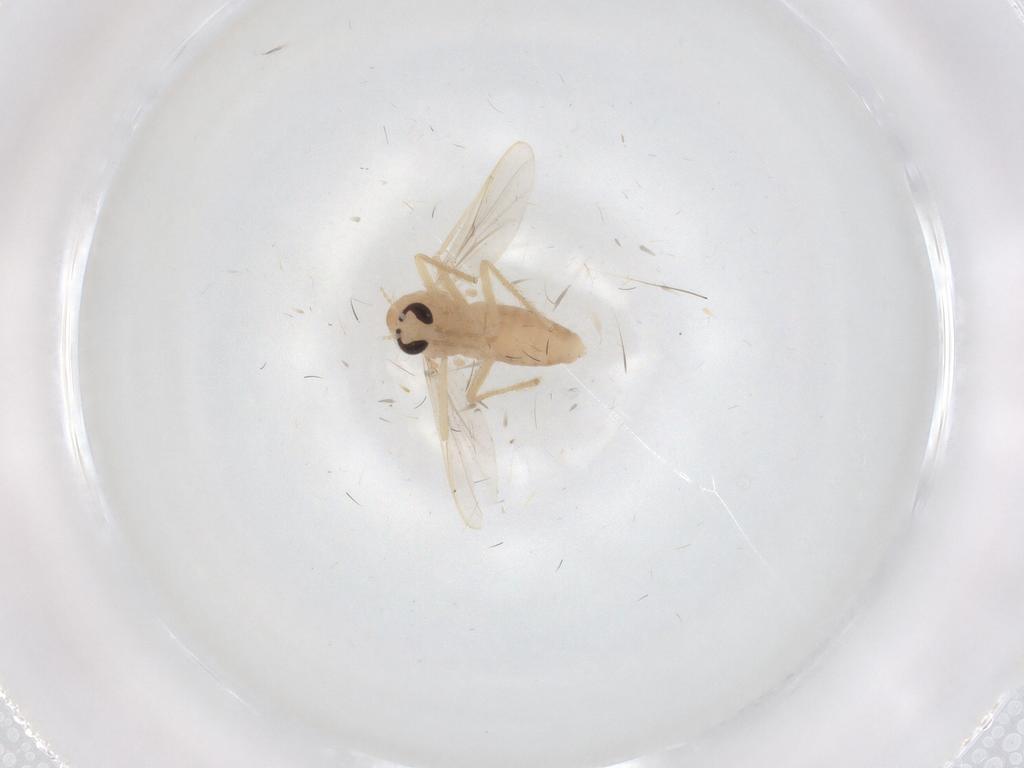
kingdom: Animalia
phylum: Arthropoda
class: Insecta
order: Diptera
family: Chironomidae
